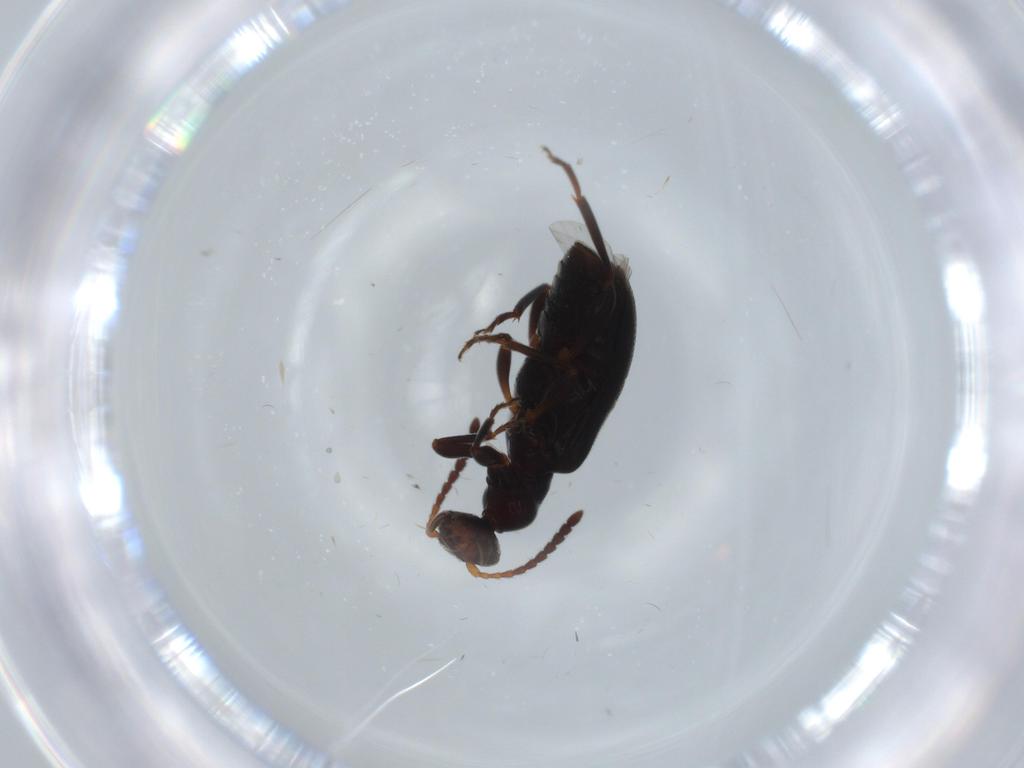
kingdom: Animalia
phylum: Arthropoda
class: Insecta
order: Coleoptera
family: Anthicidae
